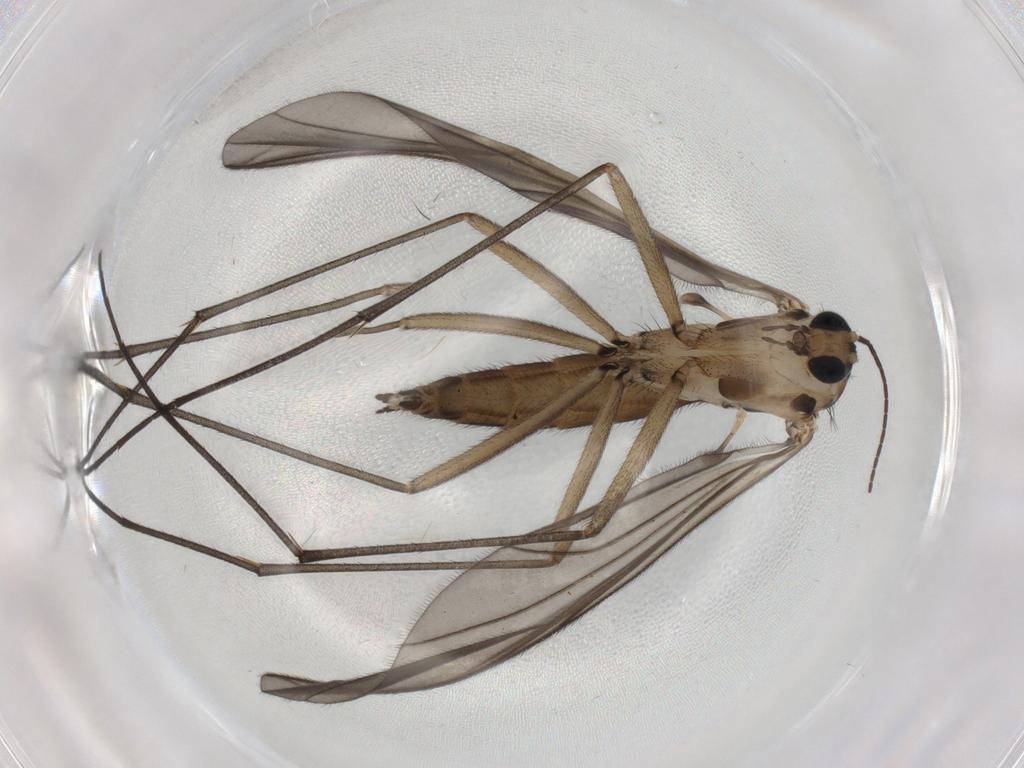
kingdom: Animalia
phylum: Arthropoda
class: Insecta
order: Diptera
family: Sciaridae
